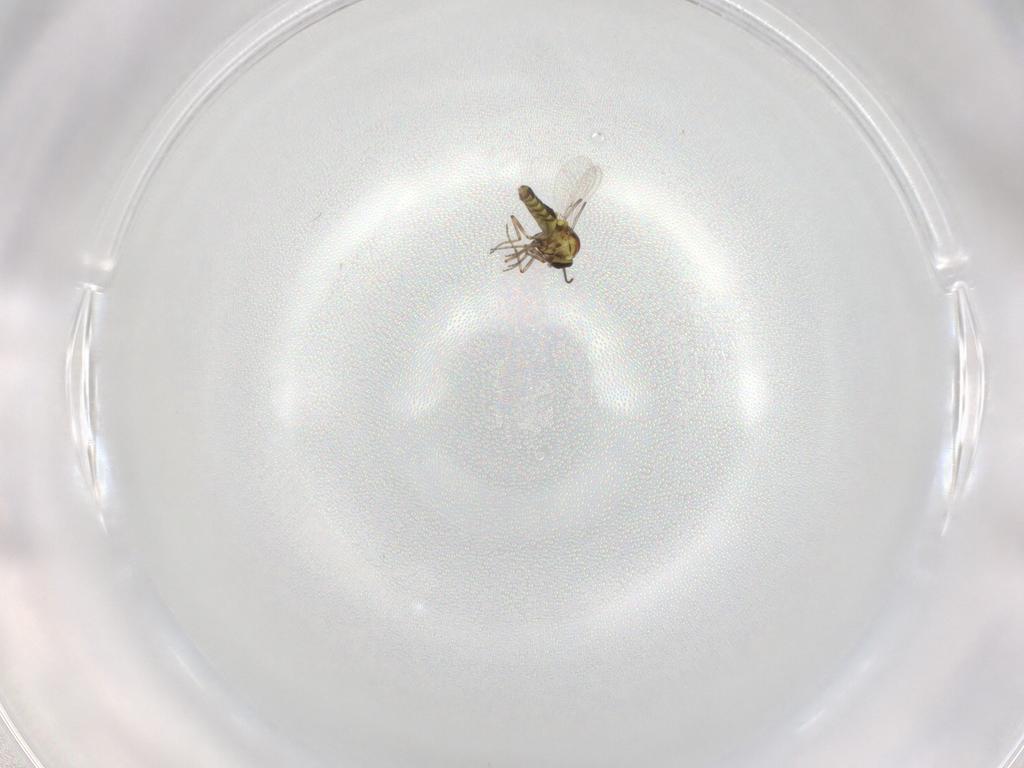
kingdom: Animalia
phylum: Arthropoda
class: Insecta
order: Diptera
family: Ceratopogonidae
